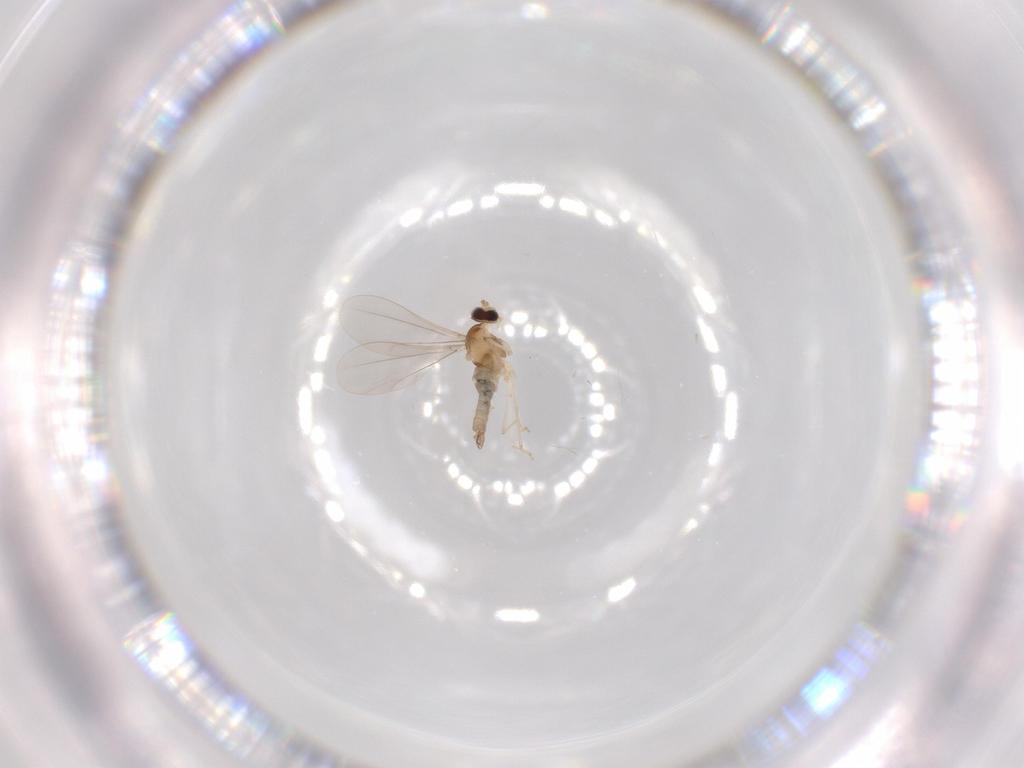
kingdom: Animalia
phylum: Arthropoda
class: Insecta
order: Diptera
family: Cecidomyiidae
